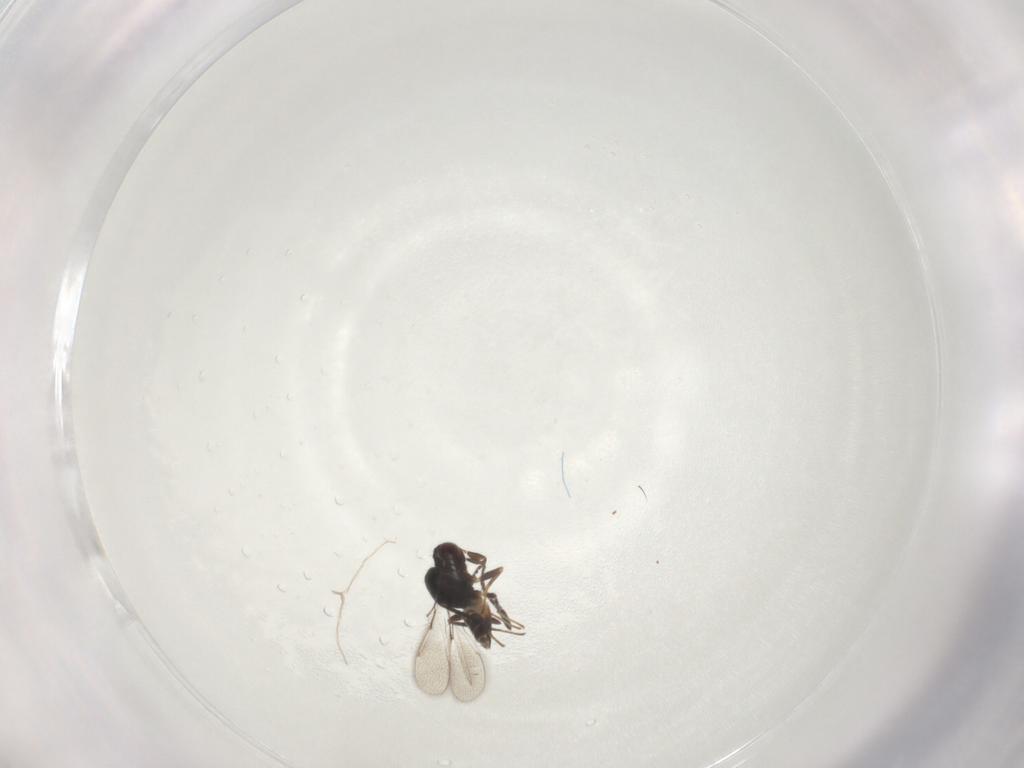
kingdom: Animalia
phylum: Arthropoda
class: Insecta
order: Hymenoptera
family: Mymaridae
